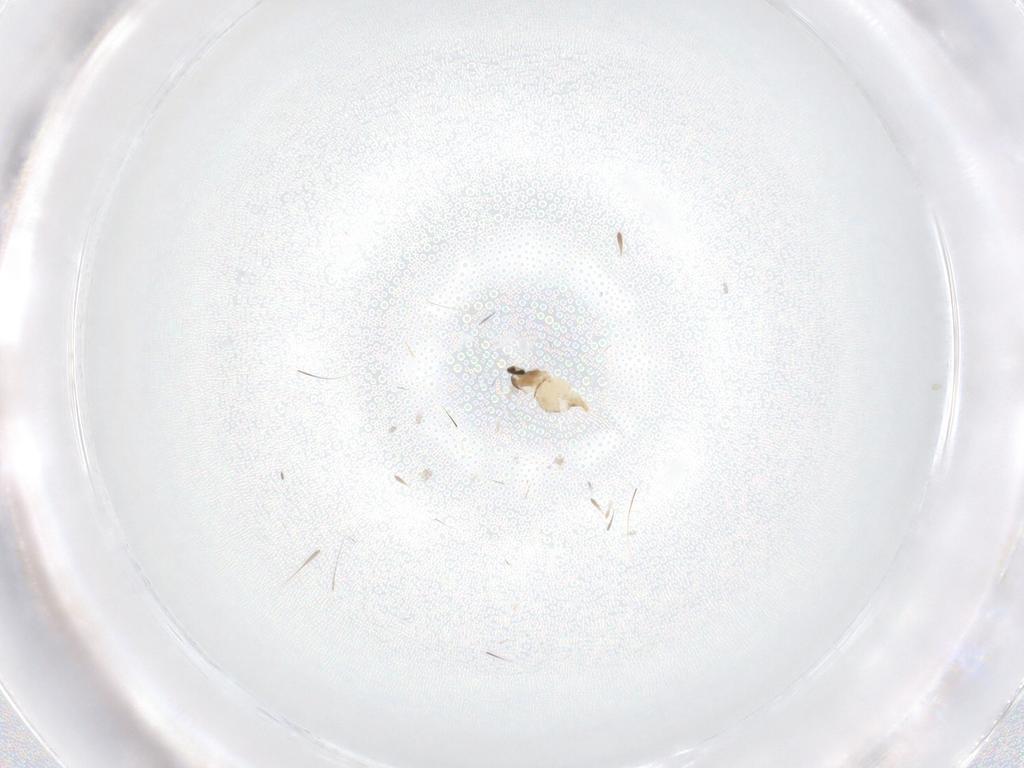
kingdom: Animalia
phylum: Arthropoda
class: Insecta
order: Diptera
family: Cecidomyiidae
